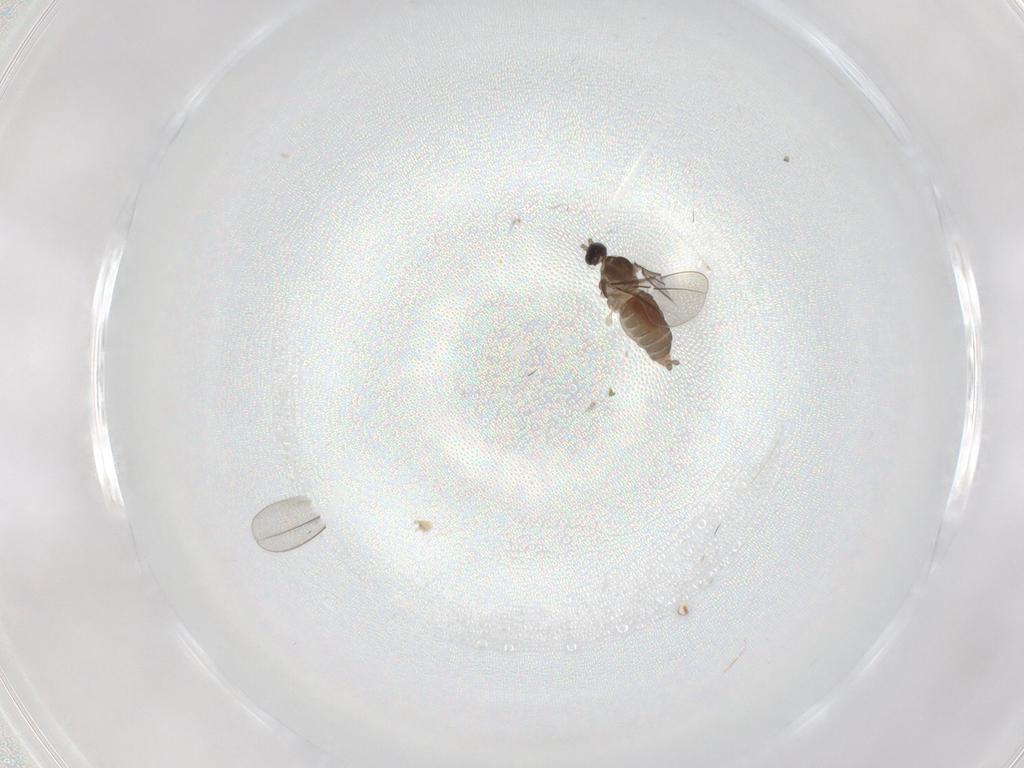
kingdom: Animalia
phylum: Arthropoda
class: Insecta
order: Diptera
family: Cecidomyiidae
